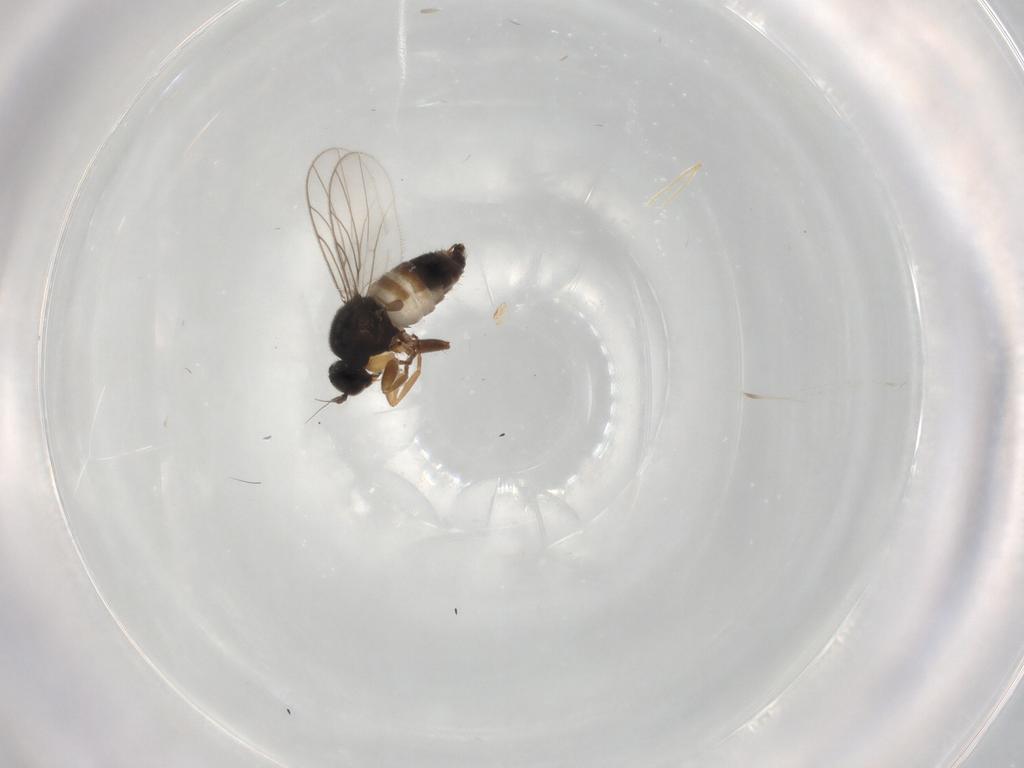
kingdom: Animalia
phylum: Arthropoda
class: Insecta
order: Diptera
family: Hybotidae
